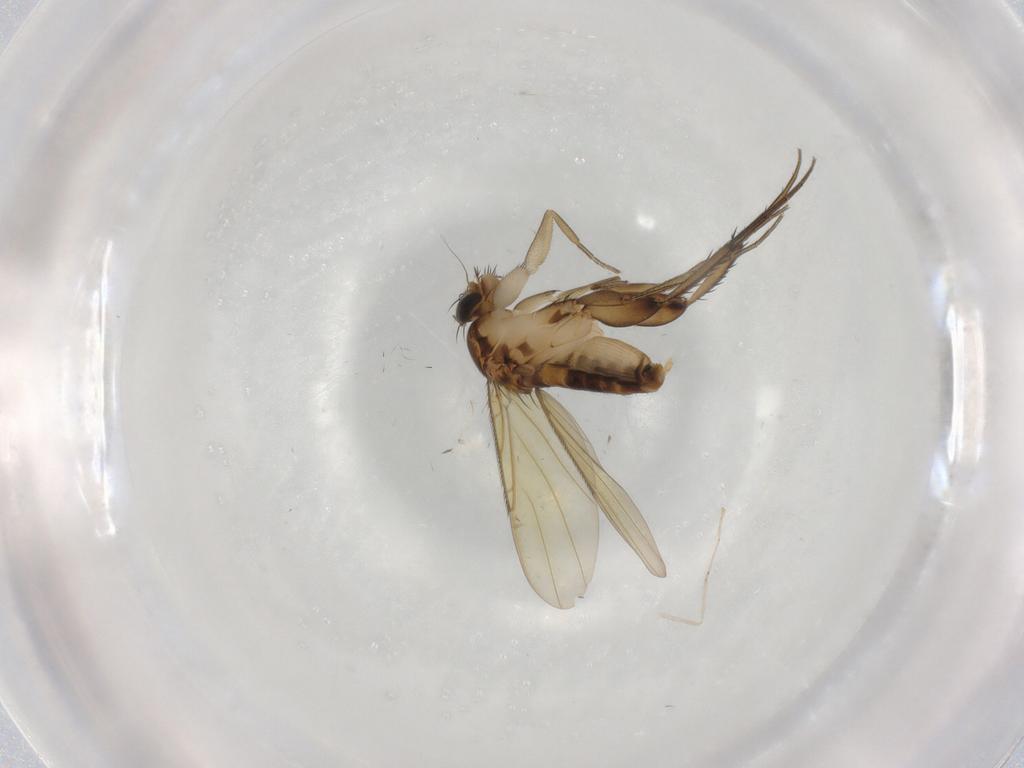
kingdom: Animalia
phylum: Arthropoda
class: Insecta
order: Diptera
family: Phoridae
